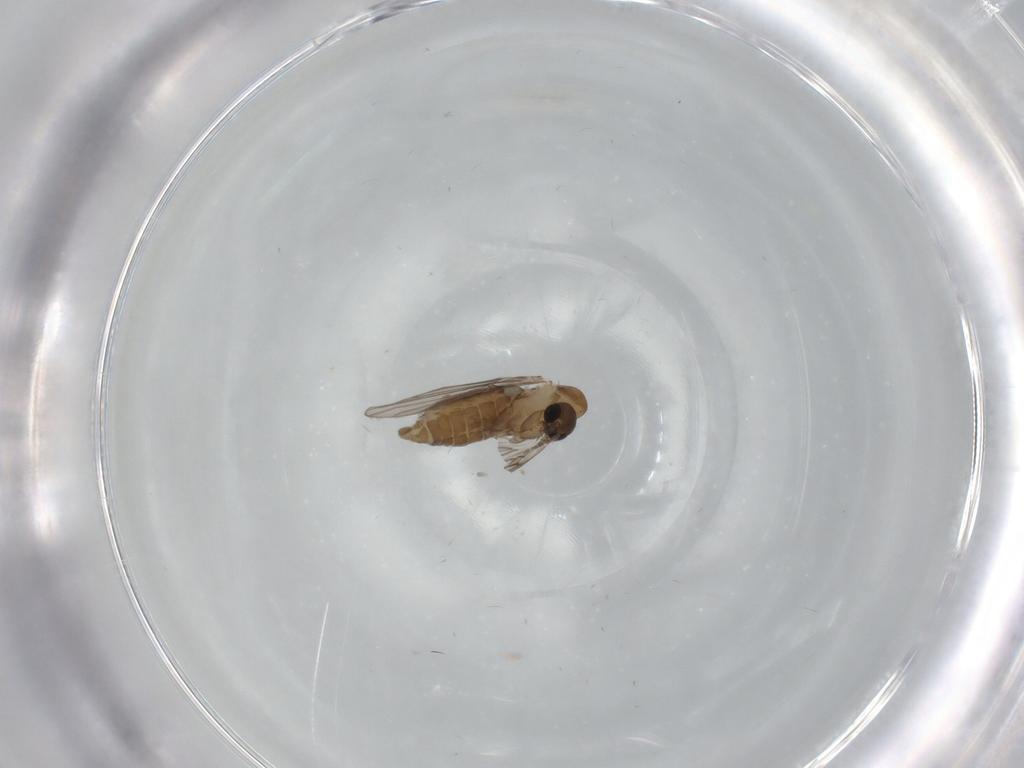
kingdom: Animalia
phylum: Arthropoda
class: Insecta
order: Diptera
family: Psychodidae
